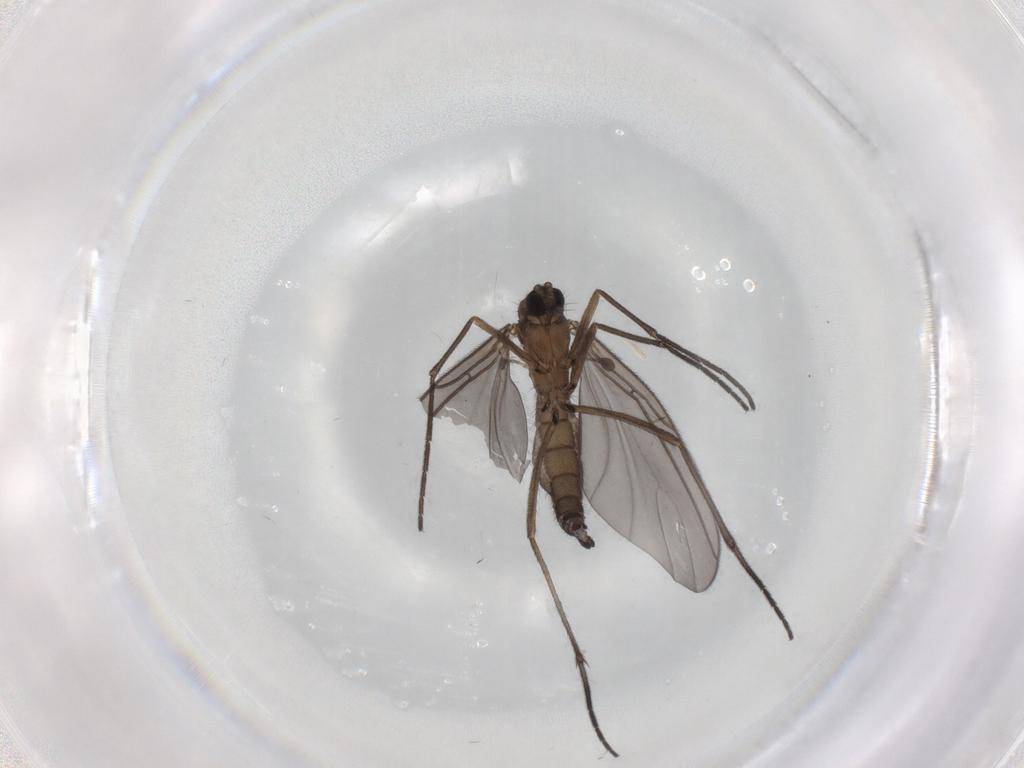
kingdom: Animalia
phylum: Arthropoda
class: Insecta
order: Diptera
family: Sciaridae
